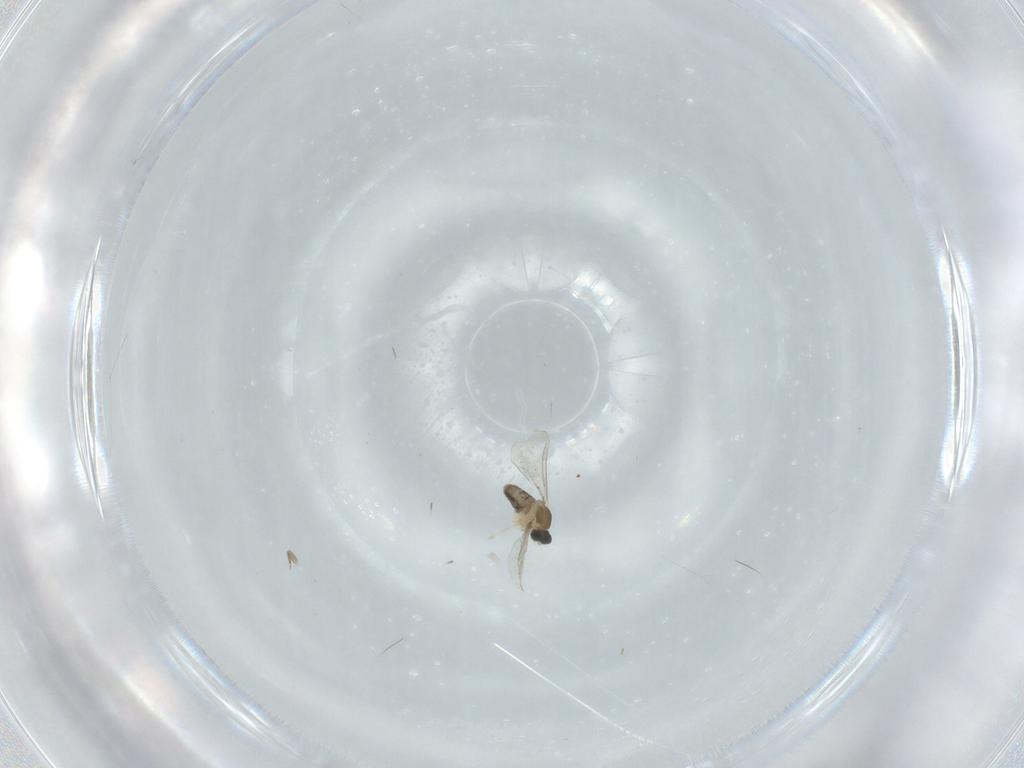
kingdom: Animalia
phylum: Arthropoda
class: Insecta
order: Diptera
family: Cecidomyiidae
